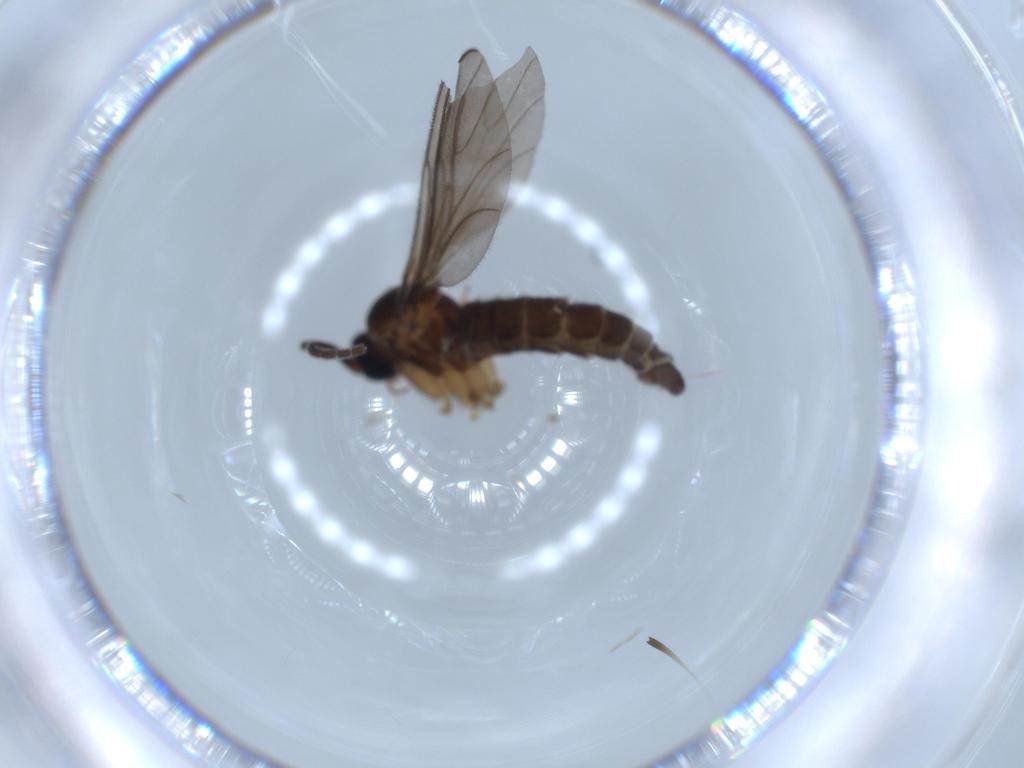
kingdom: Animalia
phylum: Arthropoda
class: Insecta
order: Diptera
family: Sciaridae
